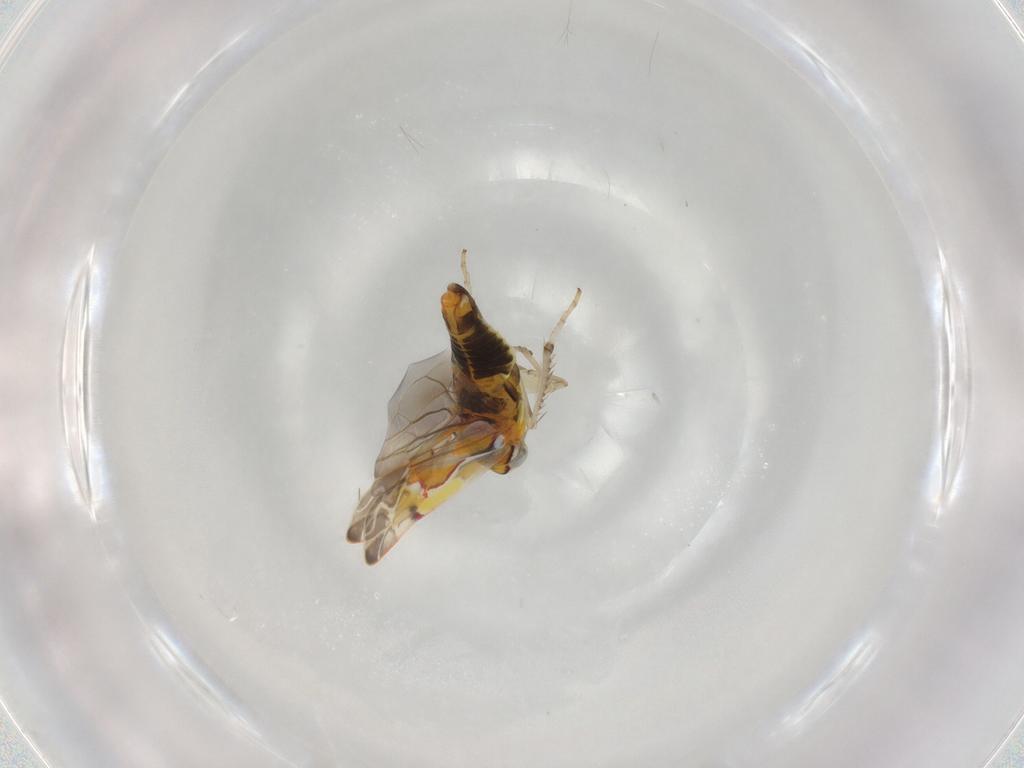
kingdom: Animalia
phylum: Arthropoda
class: Insecta
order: Hemiptera
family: Cicadellidae
